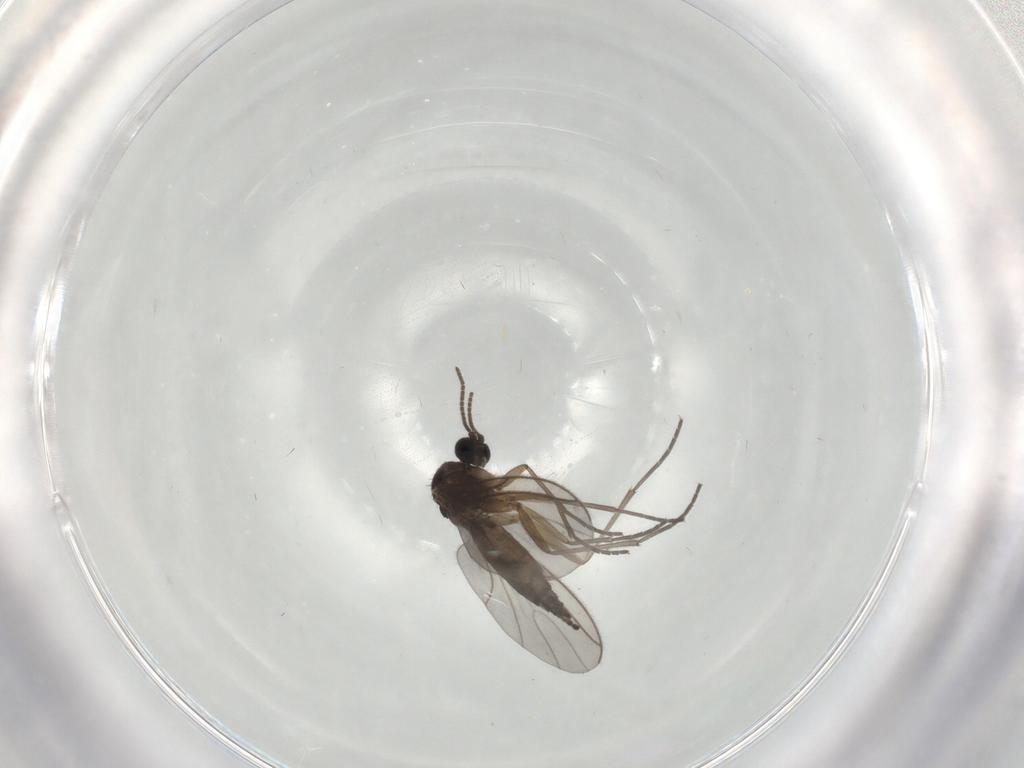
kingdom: Animalia
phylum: Arthropoda
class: Insecta
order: Diptera
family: Sciaridae
